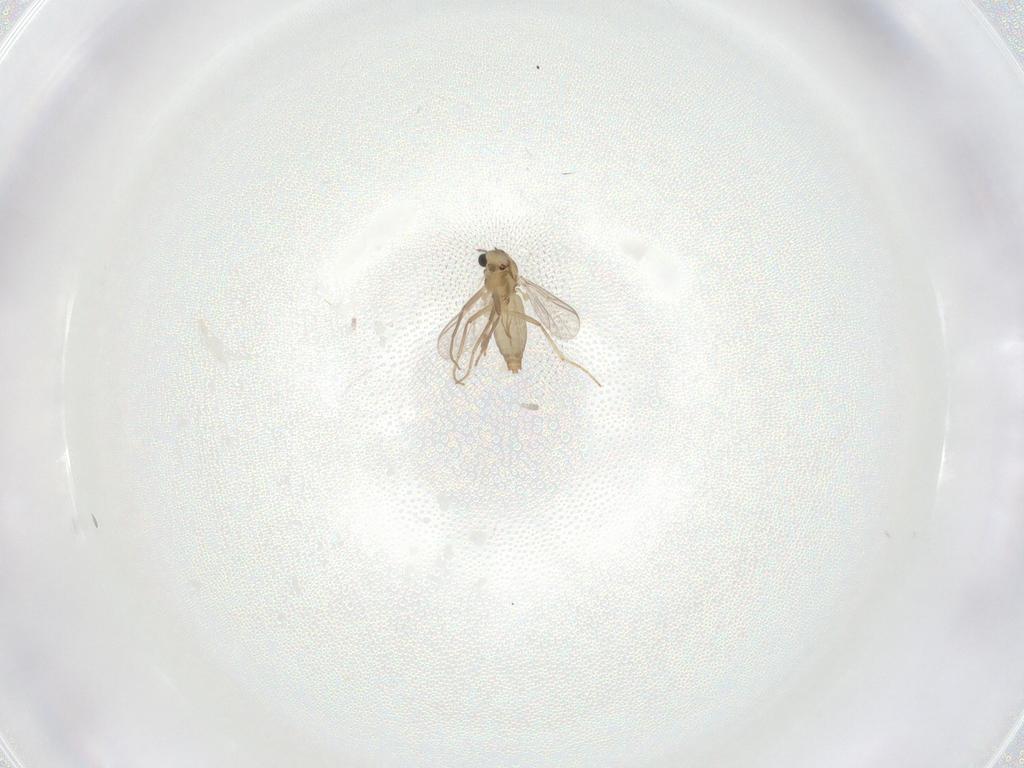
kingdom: Animalia
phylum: Arthropoda
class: Insecta
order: Diptera
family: Chironomidae
